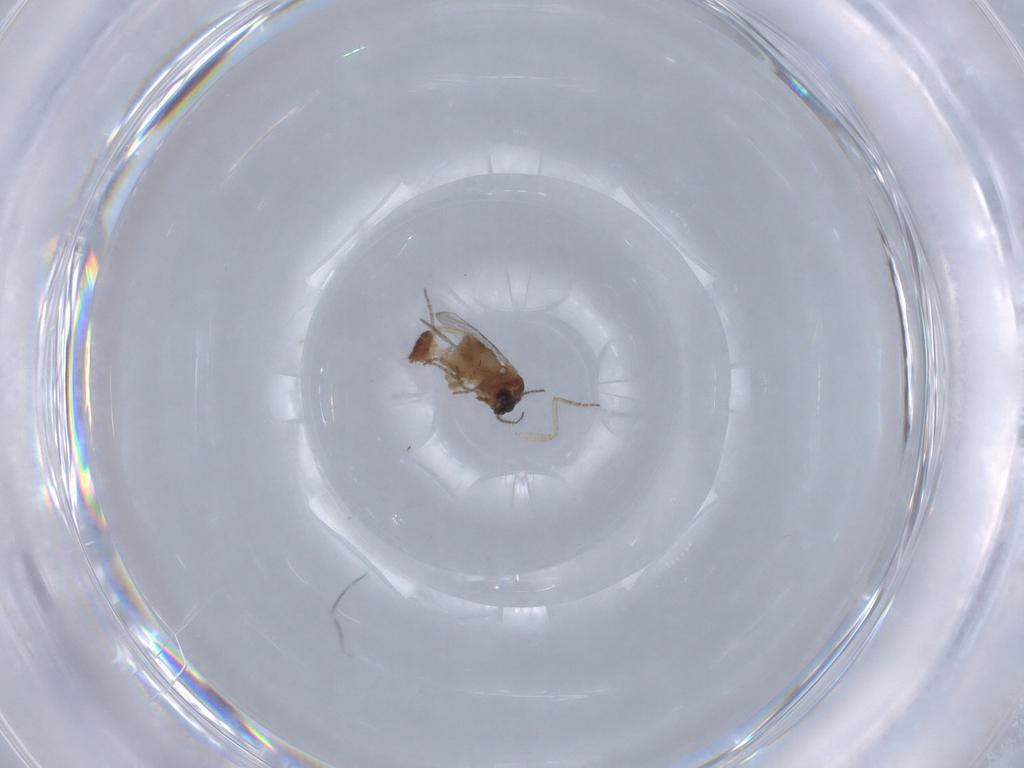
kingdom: Animalia
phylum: Arthropoda
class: Insecta
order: Diptera
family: Ceratopogonidae
